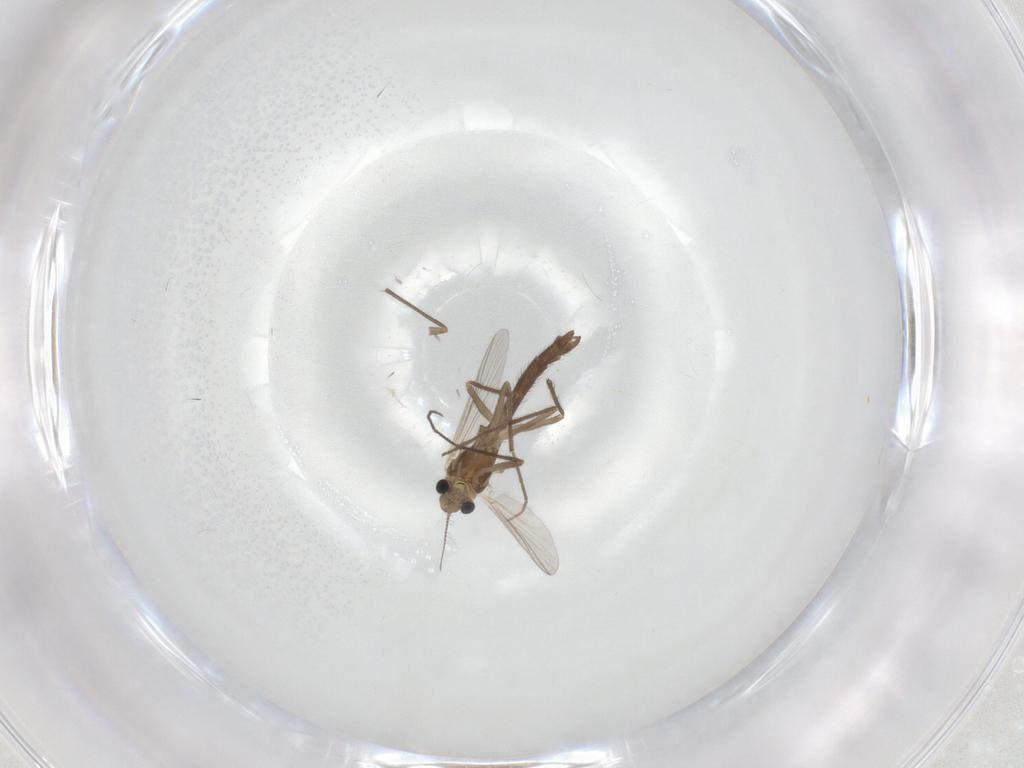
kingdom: Animalia
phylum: Arthropoda
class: Insecta
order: Diptera
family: Chironomidae
